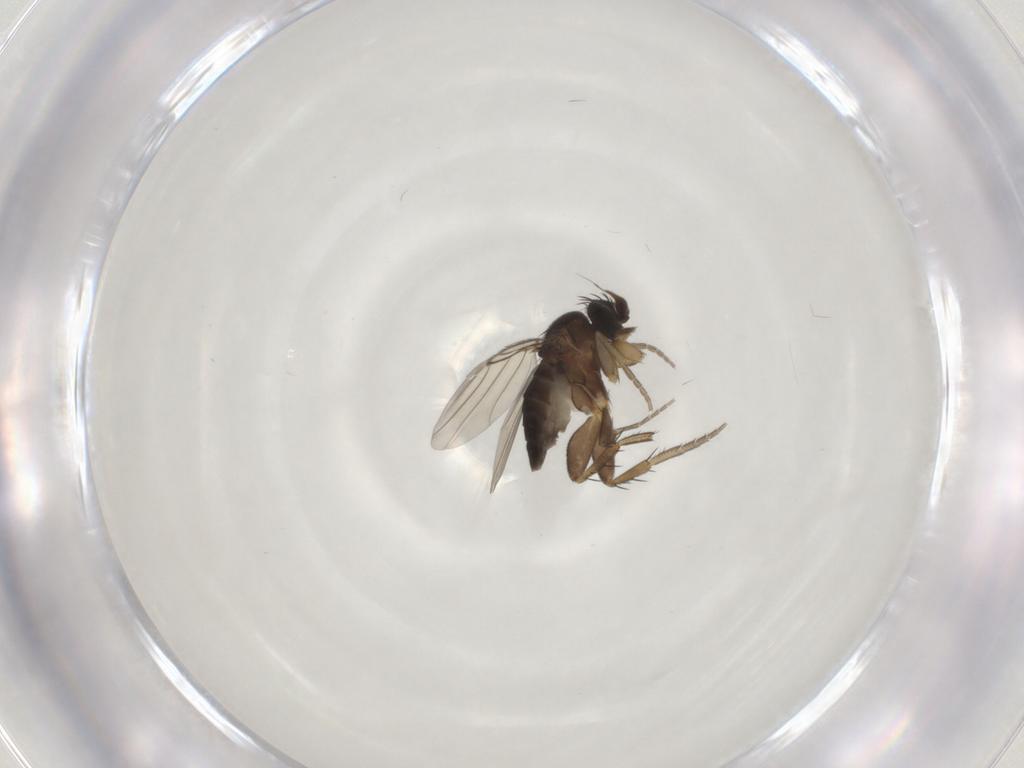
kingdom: Animalia
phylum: Arthropoda
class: Insecta
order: Diptera
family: Phoridae
